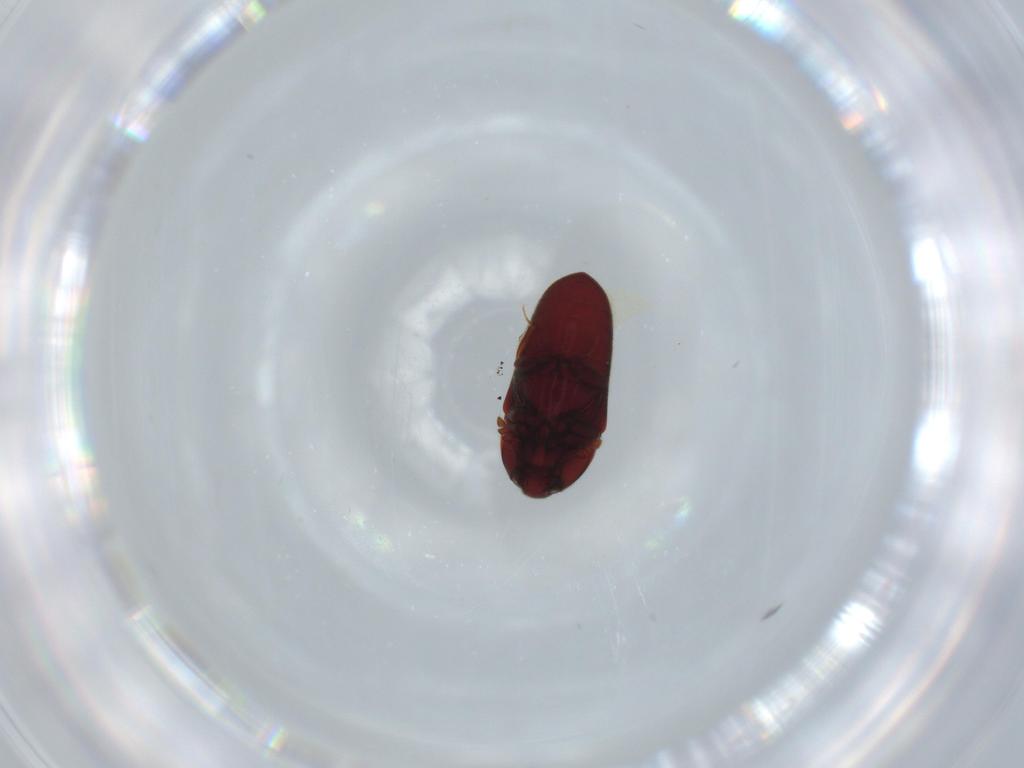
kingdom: Animalia
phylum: Arthropoda
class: Insecta
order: Coleoptera
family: Throscidae
